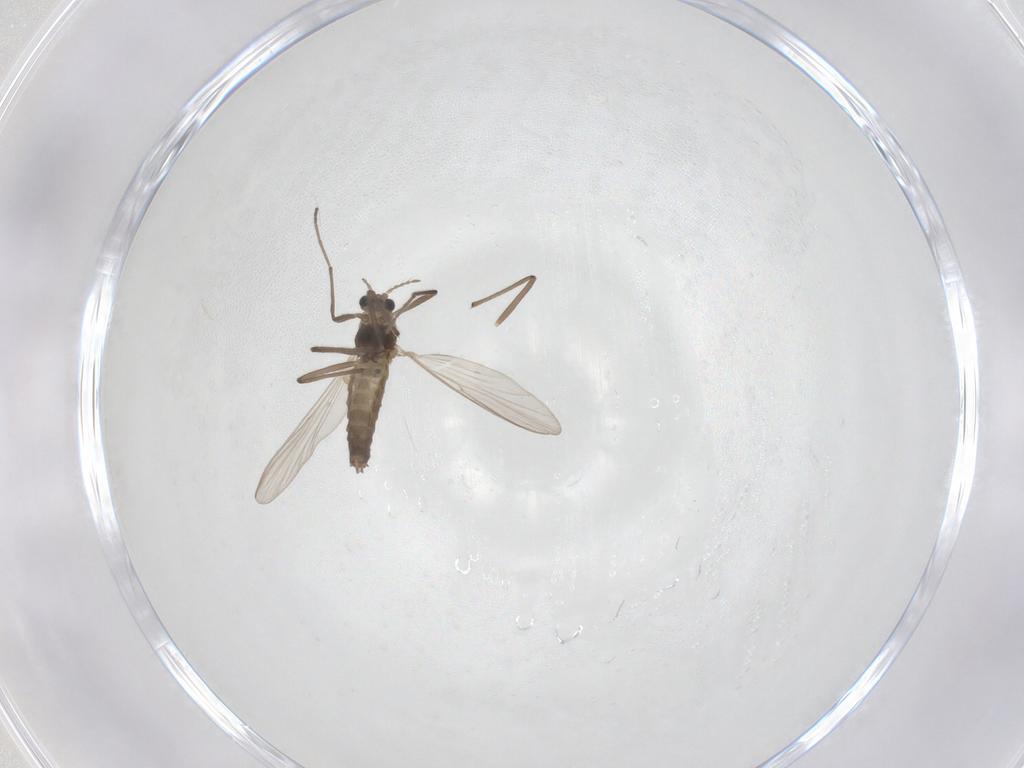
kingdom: Animalia
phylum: Arthropoda
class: Insecta
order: Diptera
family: Chironomidae
